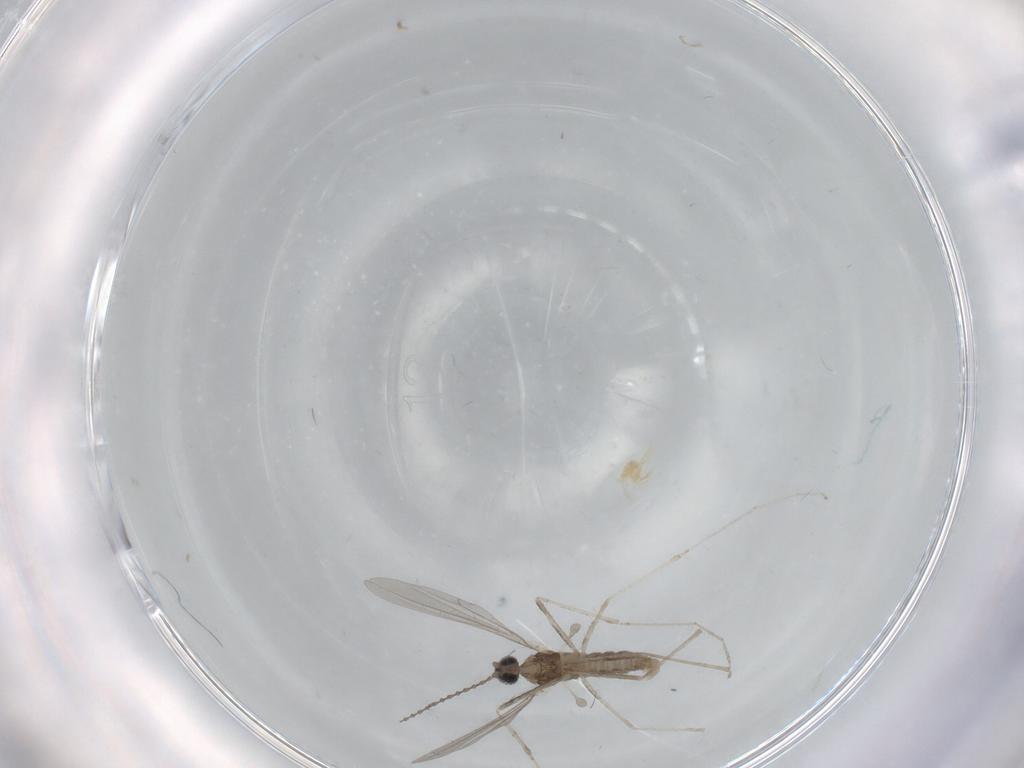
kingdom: Animalia
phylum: Arthropoda
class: Insecta
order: Diptera
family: Cecidomyiidae
